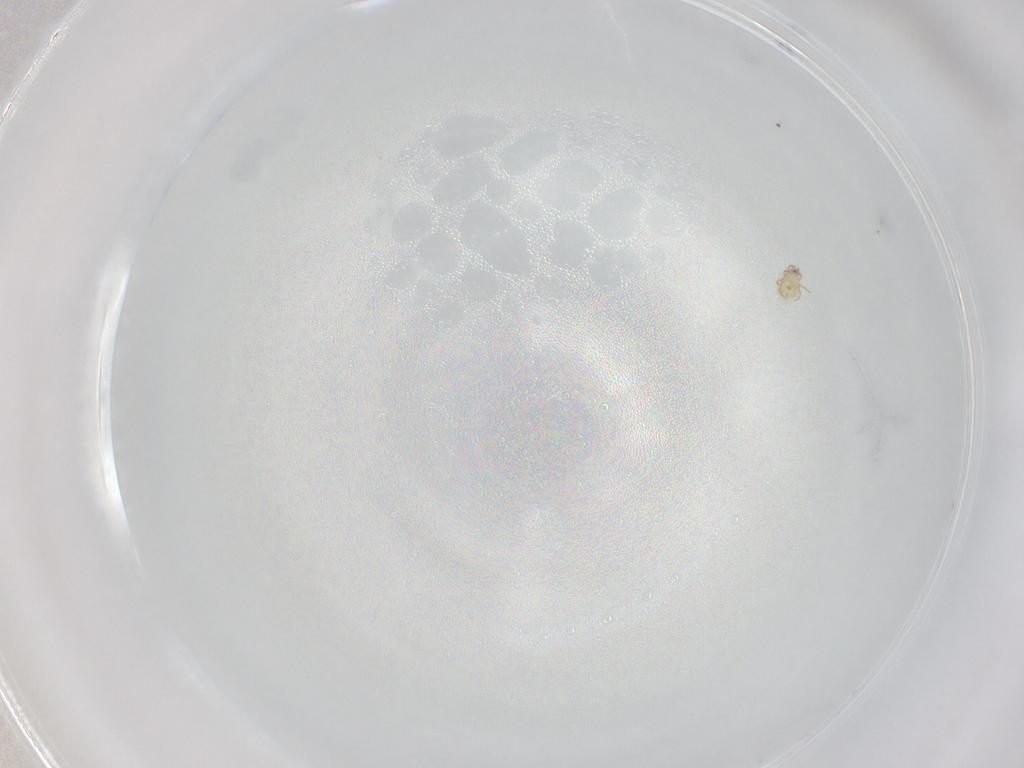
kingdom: Animalia
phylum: Arthropoda
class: Arachnida
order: Sarcoptiformes
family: Oribatulidae
